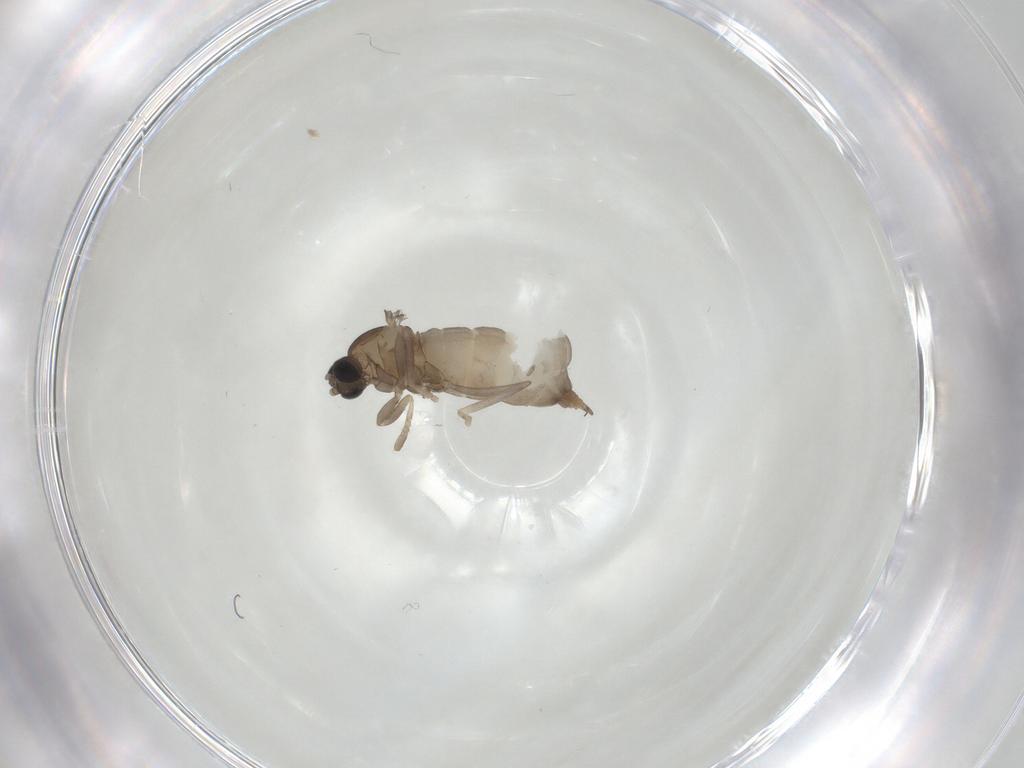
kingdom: Animalia
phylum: Arthropoda
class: Insecta
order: Diptera
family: Cecidomyiidae
